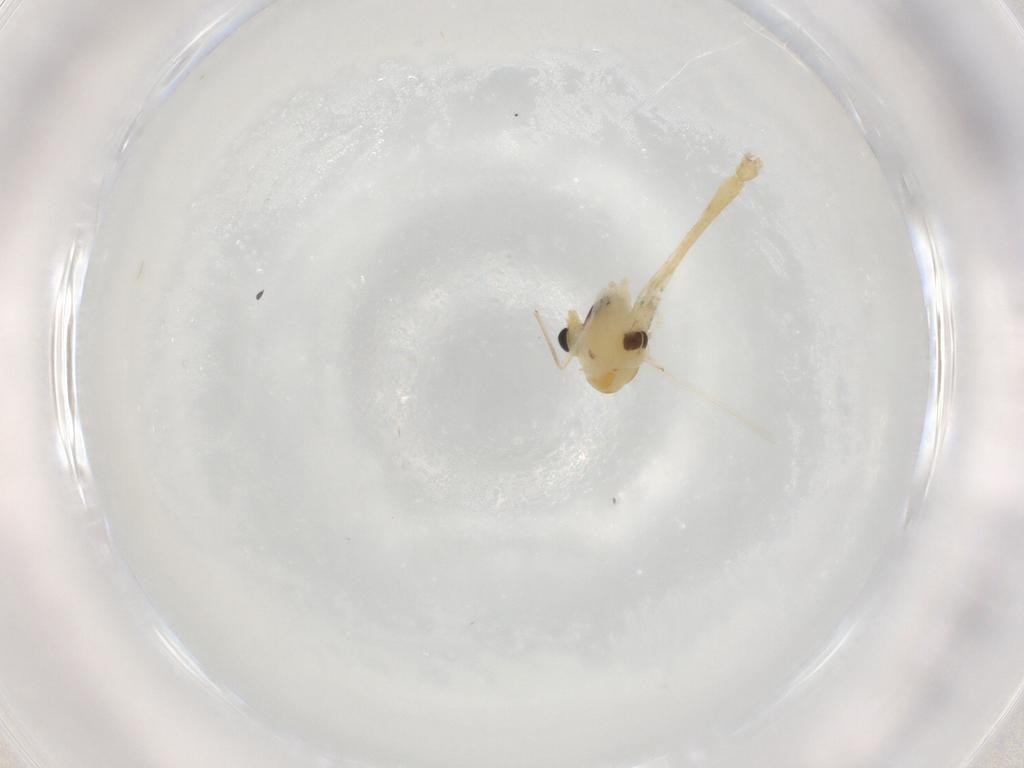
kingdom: Animalia
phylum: Arthropoda
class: Insecta
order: Diptera
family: Chironomidae
